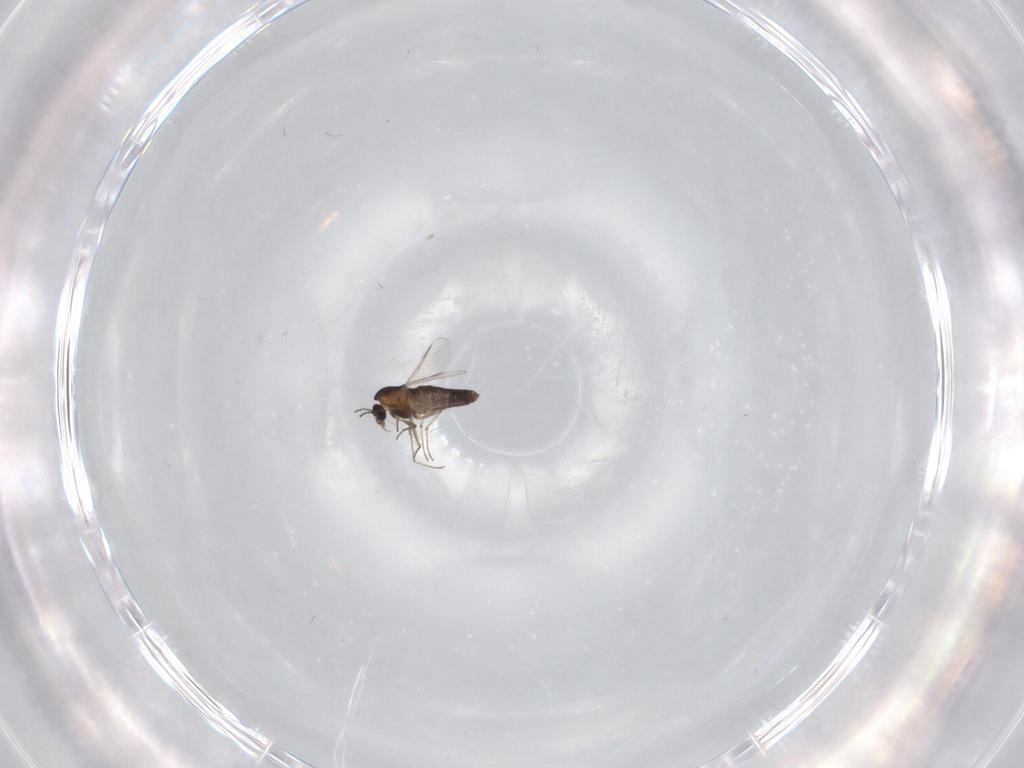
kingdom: Animalia
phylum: Arthropoda
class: Insecta
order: Diptera
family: Chironomidae
